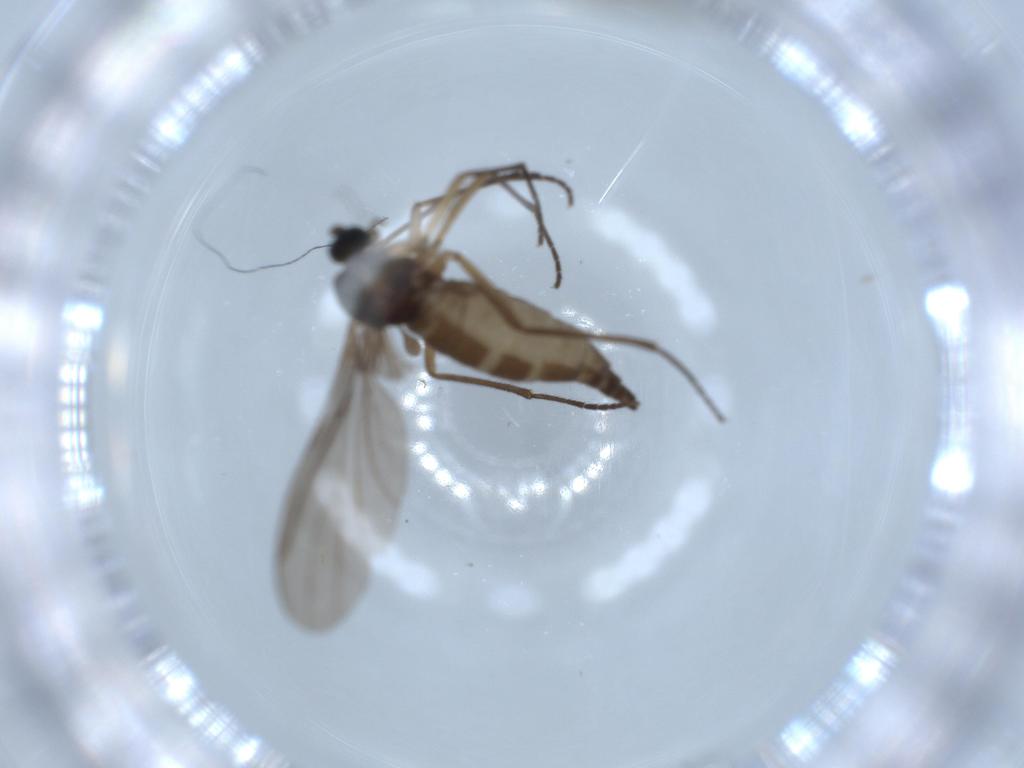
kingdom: Animalia
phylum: Arthropoda
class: Insecta
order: Diptera
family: Sciaridae
